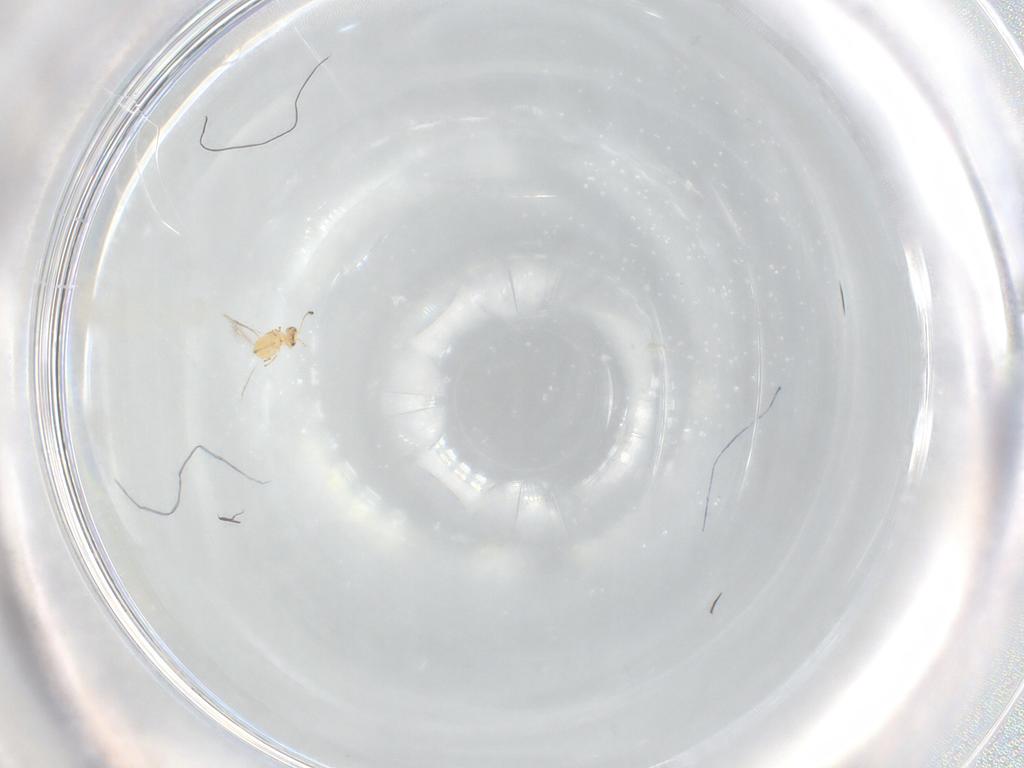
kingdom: Animalia
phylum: Arthropoda
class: Insecta
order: Hymenoptera
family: Mymaridae
